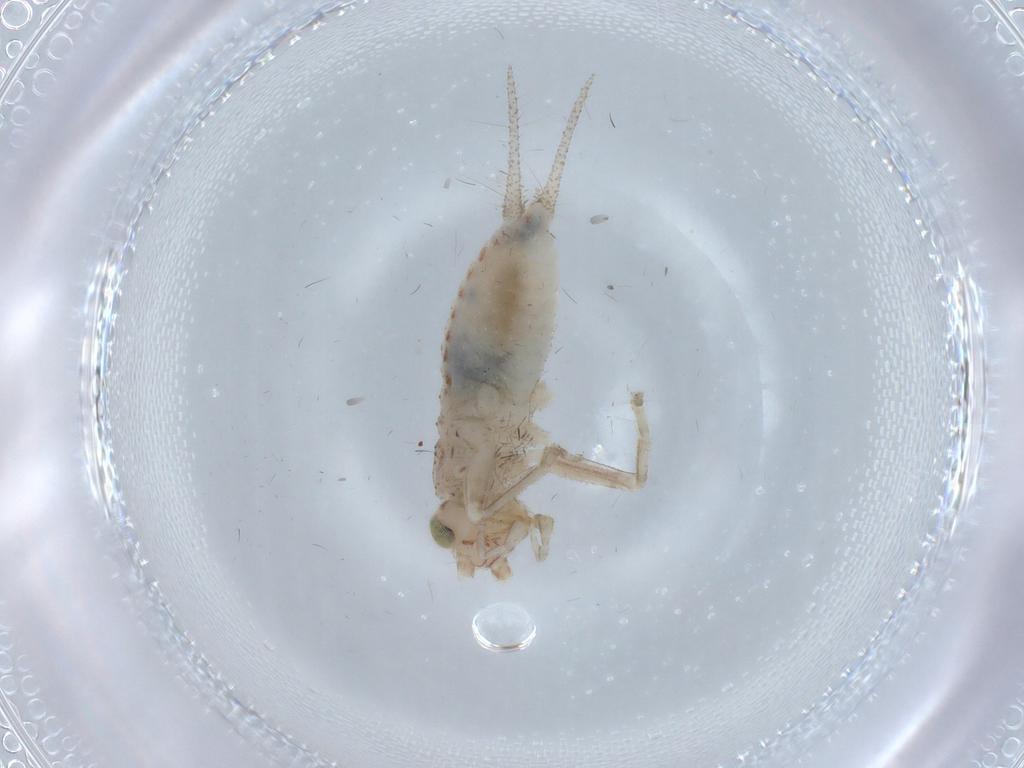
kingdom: Animalia
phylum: Arthropoda
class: Insecta
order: Orthoptera
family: Trigonidiidae
